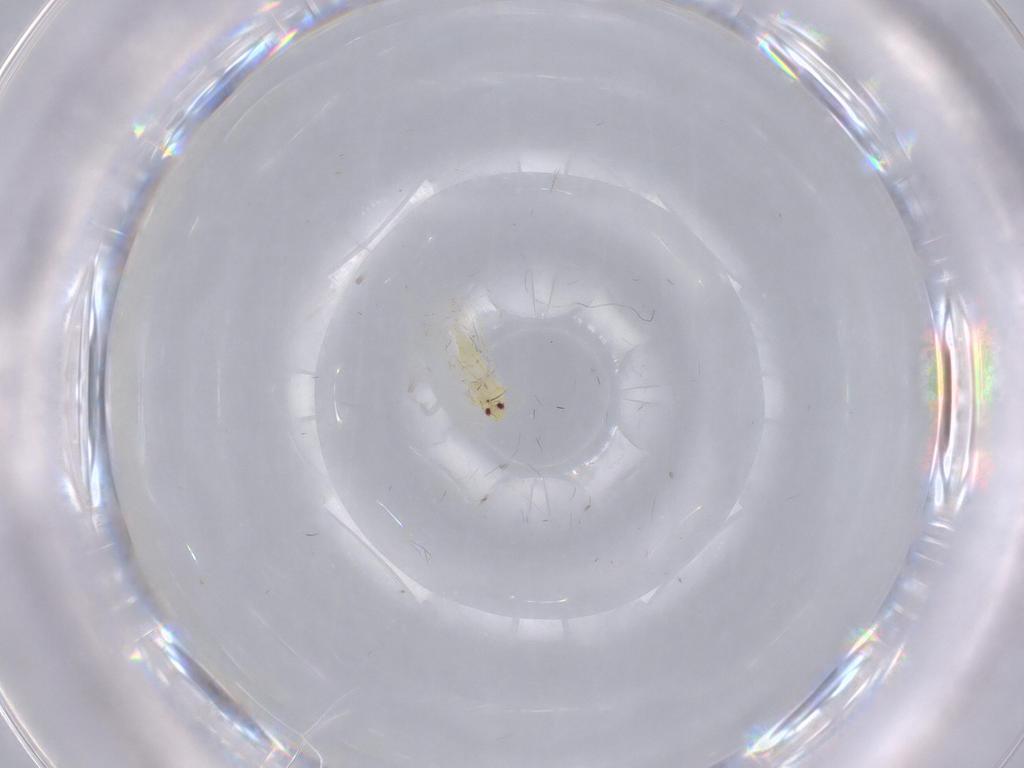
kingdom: Animalia
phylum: Arthropoda
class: Insecta
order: Hemiptera
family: Aleyrodidae
